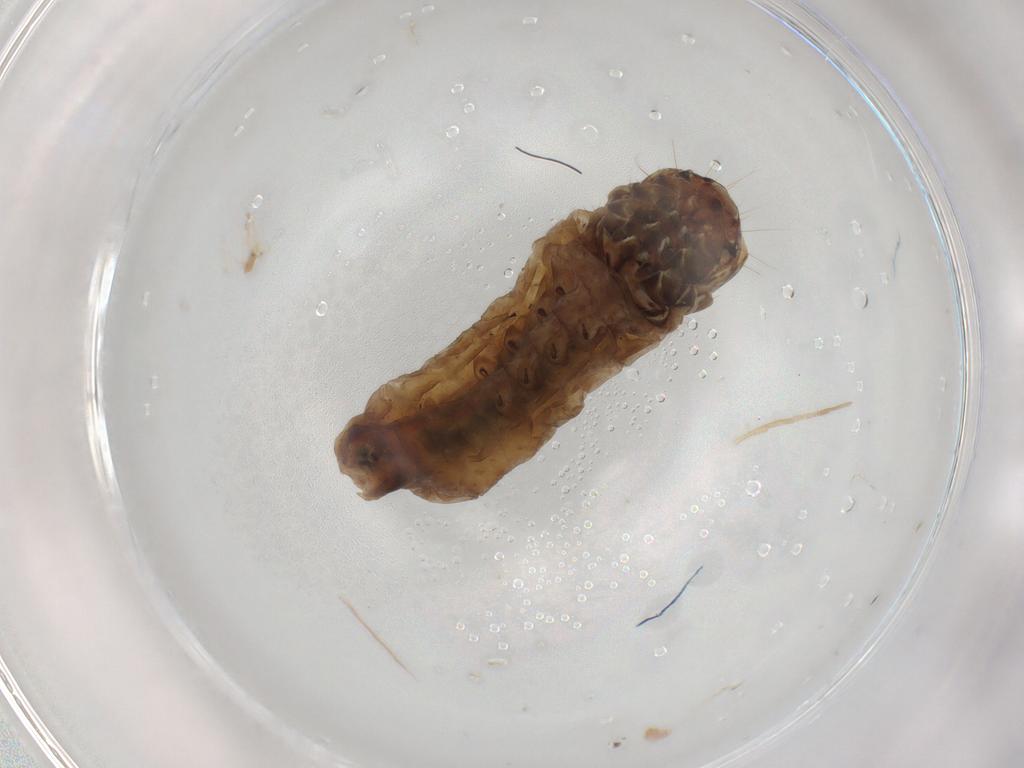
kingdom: Animalia
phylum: Arthropoda
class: Insecta
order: Lepidoptera
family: Psychidae
